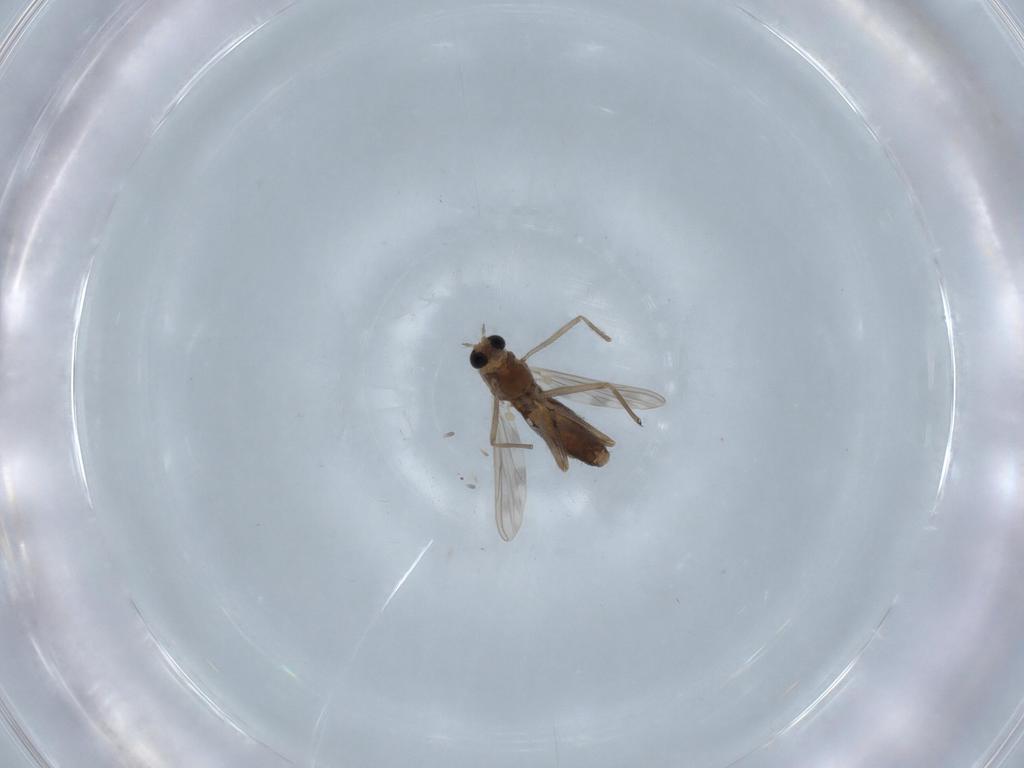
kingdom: Animalia
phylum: Arthropoda
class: Insecta
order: Diptera
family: Chironomidae
